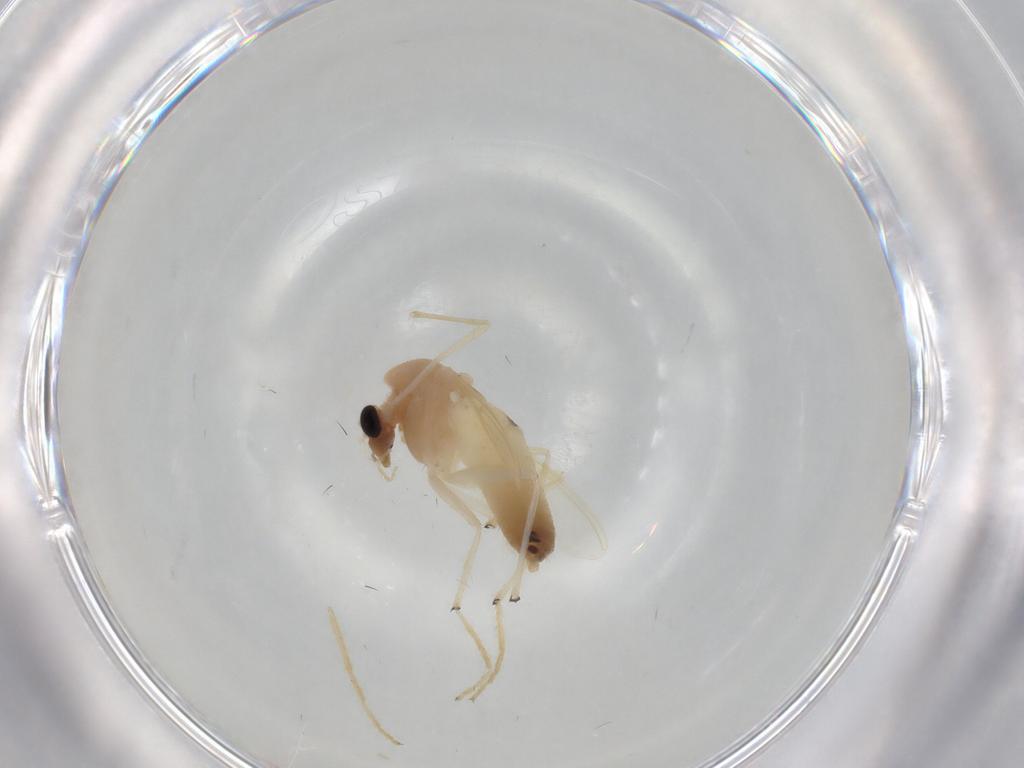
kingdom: Animalia
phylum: Arthropoda
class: Insecta
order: Diptera
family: Chironomidae
